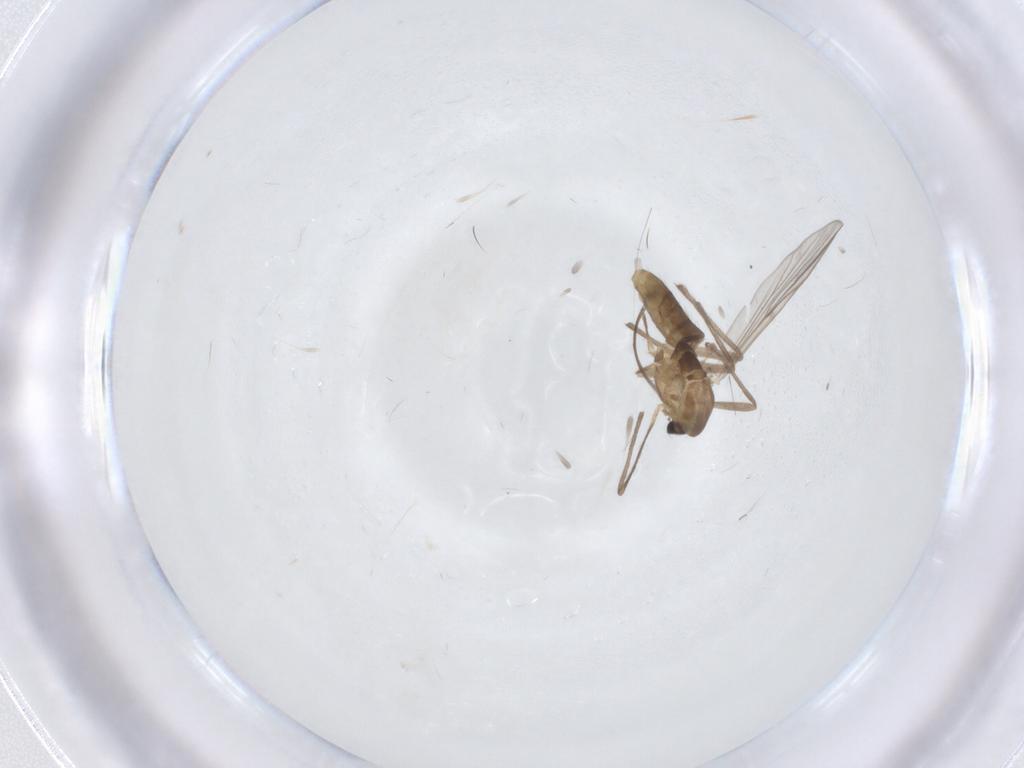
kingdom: Animalia
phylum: Arthropoda
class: Insecta
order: Diptera
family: Chironomidae
